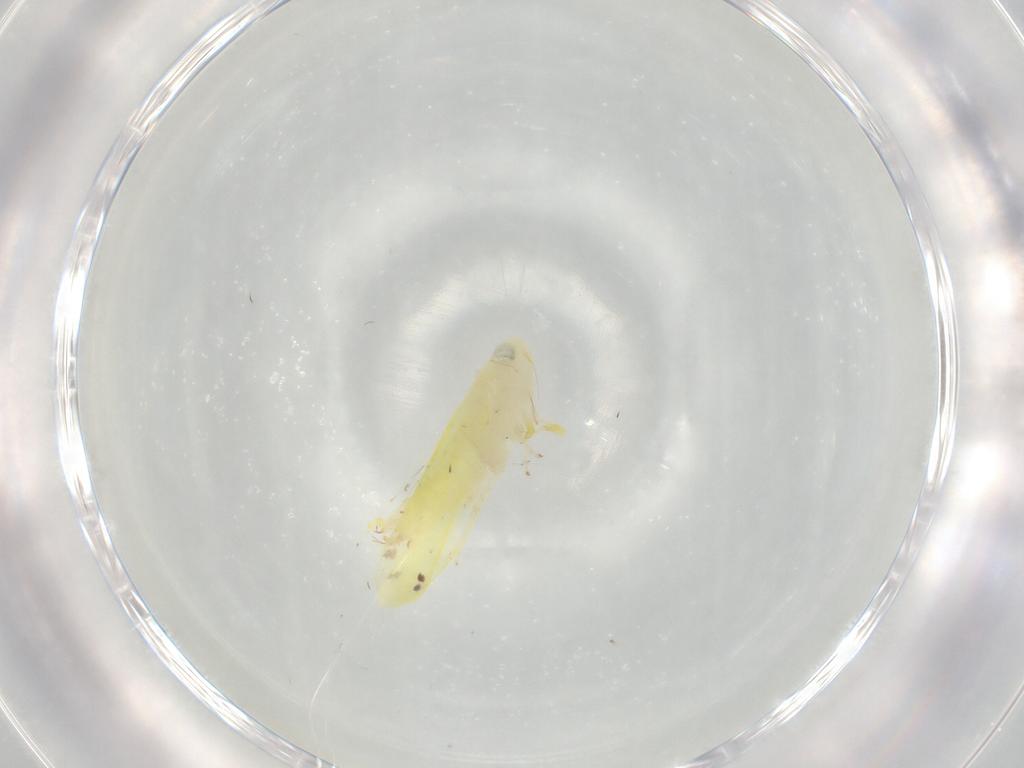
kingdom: Animalia
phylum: Arthropoda
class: Insecta
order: Hemiptera
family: Cicadellidae
